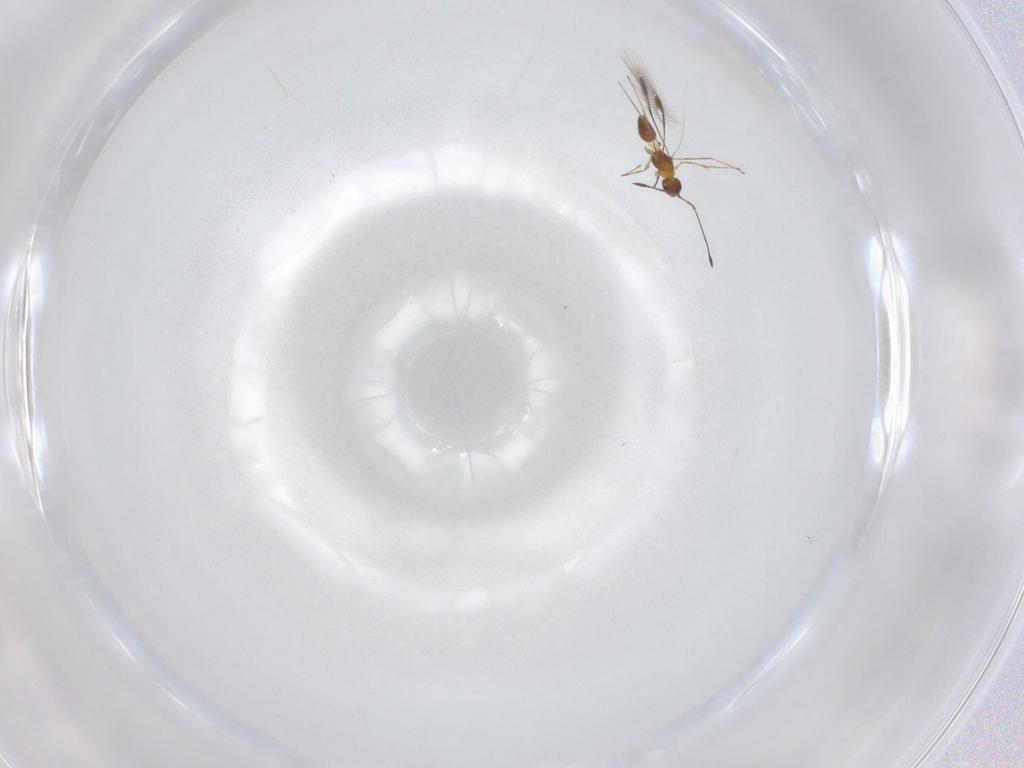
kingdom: Animalia
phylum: Arthropoda
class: Insecta
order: Hymenoptera
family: Mymaridae
